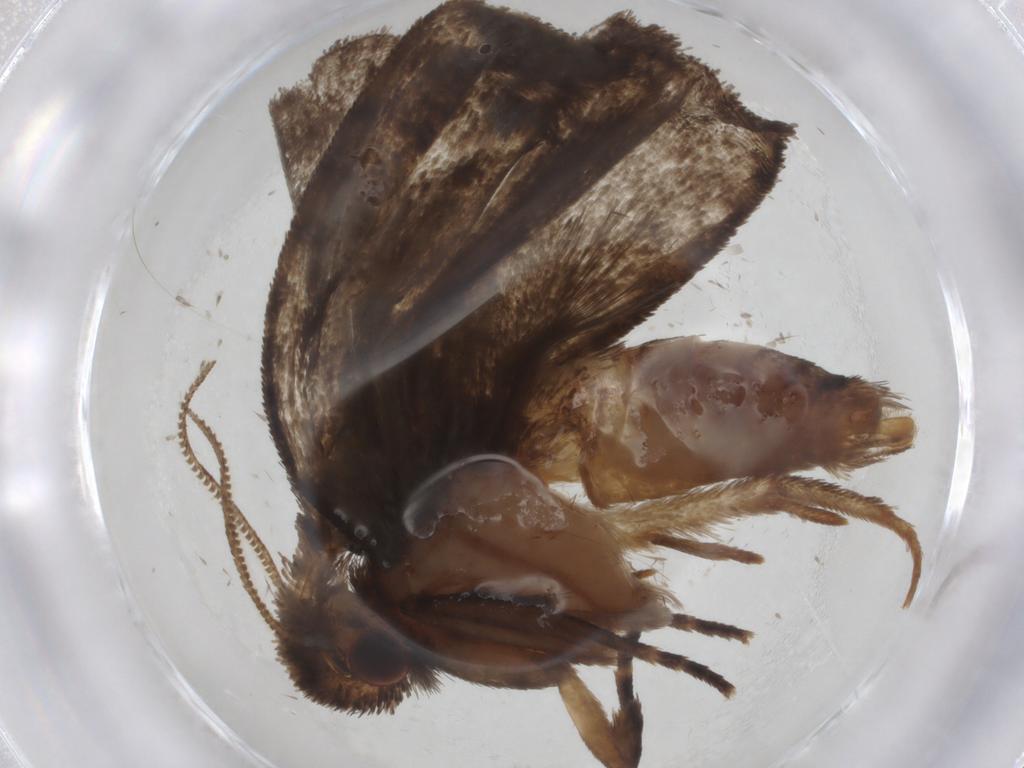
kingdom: Animalia
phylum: Arthropoda
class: Insecta
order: Lepidoptera
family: Tineidae
